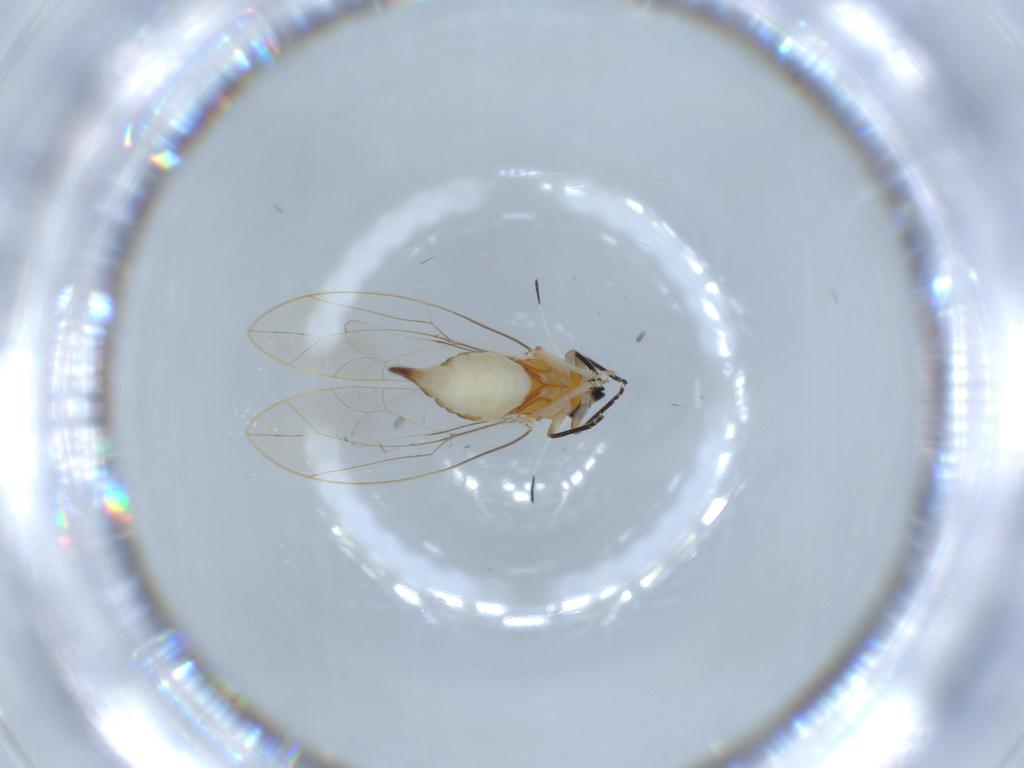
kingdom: Animalia
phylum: Arthropoda
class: Insecta
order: Hemiptera
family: Triozidae
